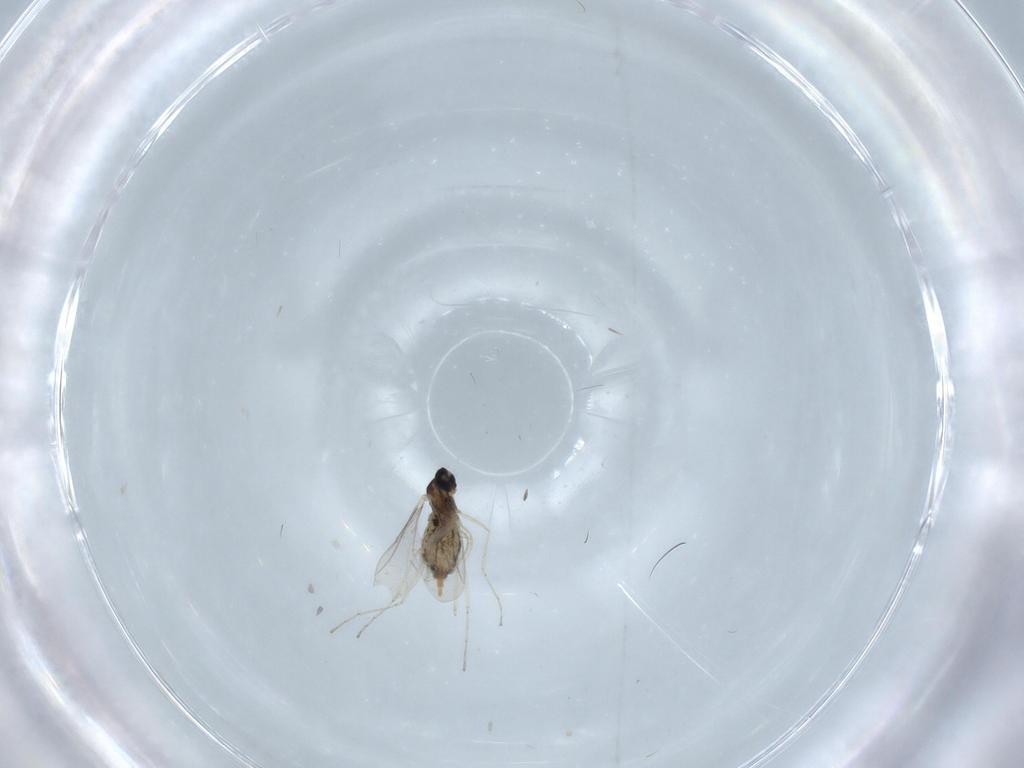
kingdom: Animalia
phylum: Arthropoda
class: Insecta
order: Diptera
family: Cecidomyiidae
